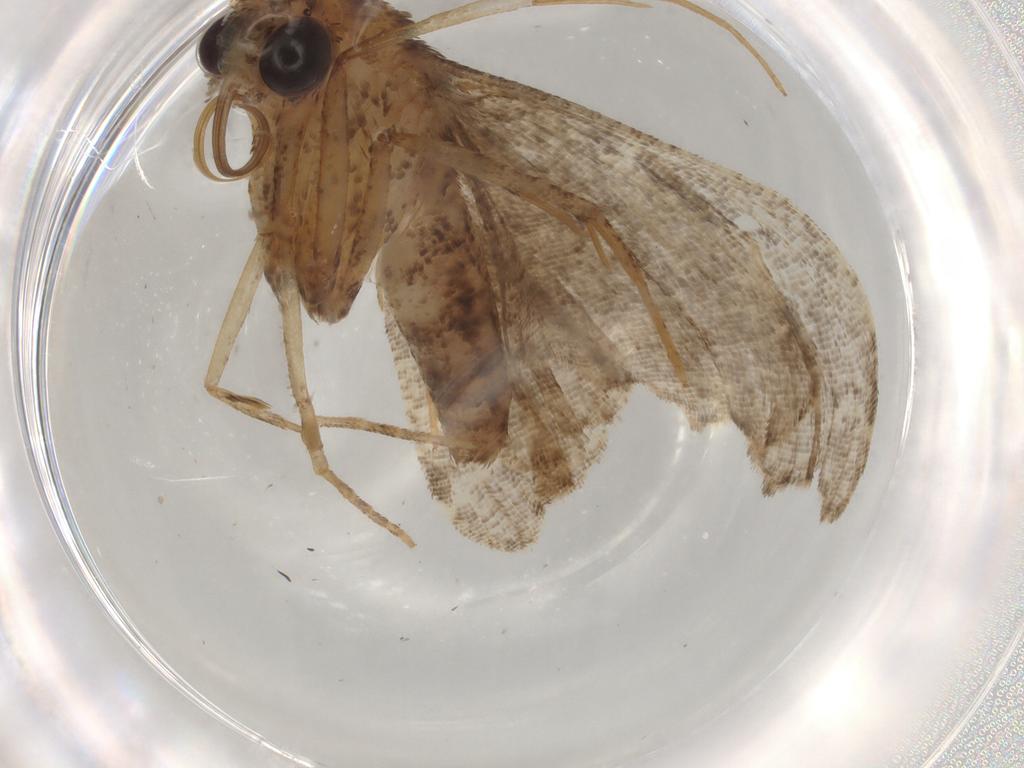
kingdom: Animalia
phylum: Arthropoda
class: Insecta
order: Lepidoptera
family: Erebidae
